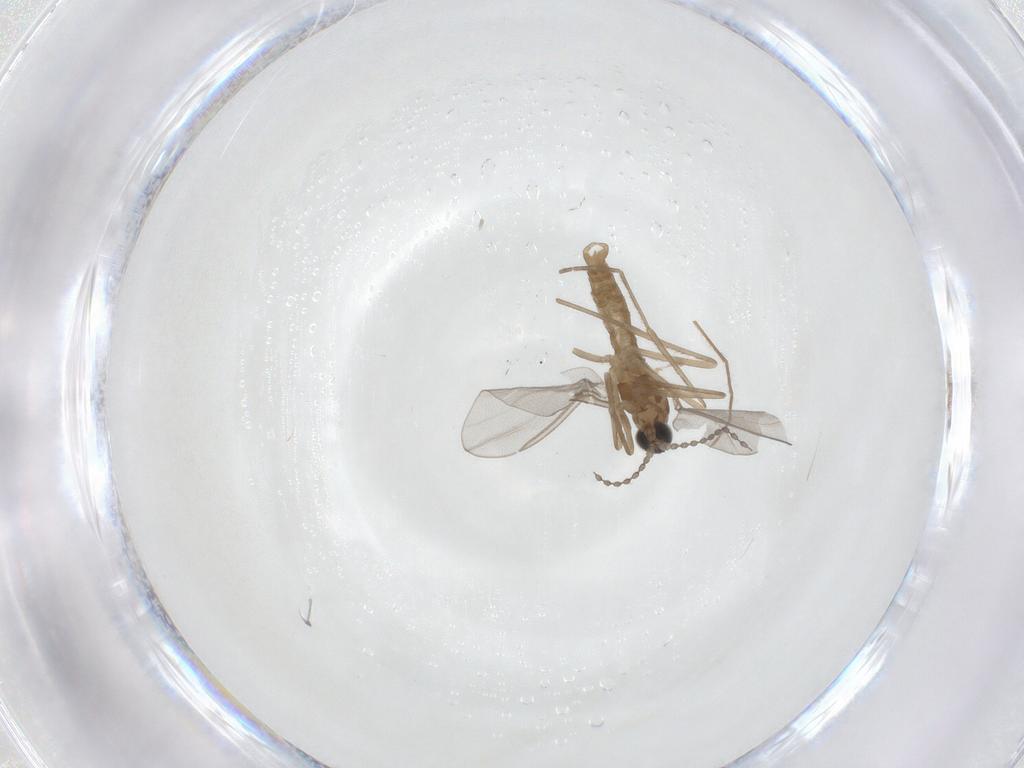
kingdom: Animalia
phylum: Arthropoda
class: Insecta
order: Diptera
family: Cecidomyiidae
